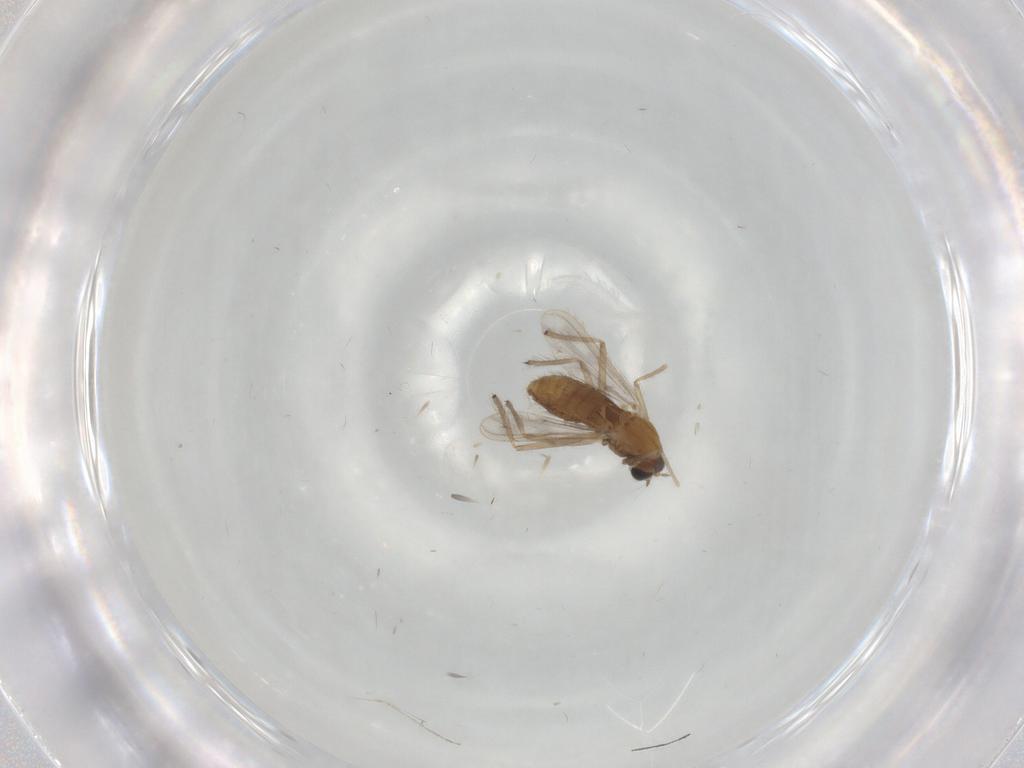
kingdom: Animalia
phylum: Arthropoda
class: Insecta
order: Diptera
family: Chironomidae
